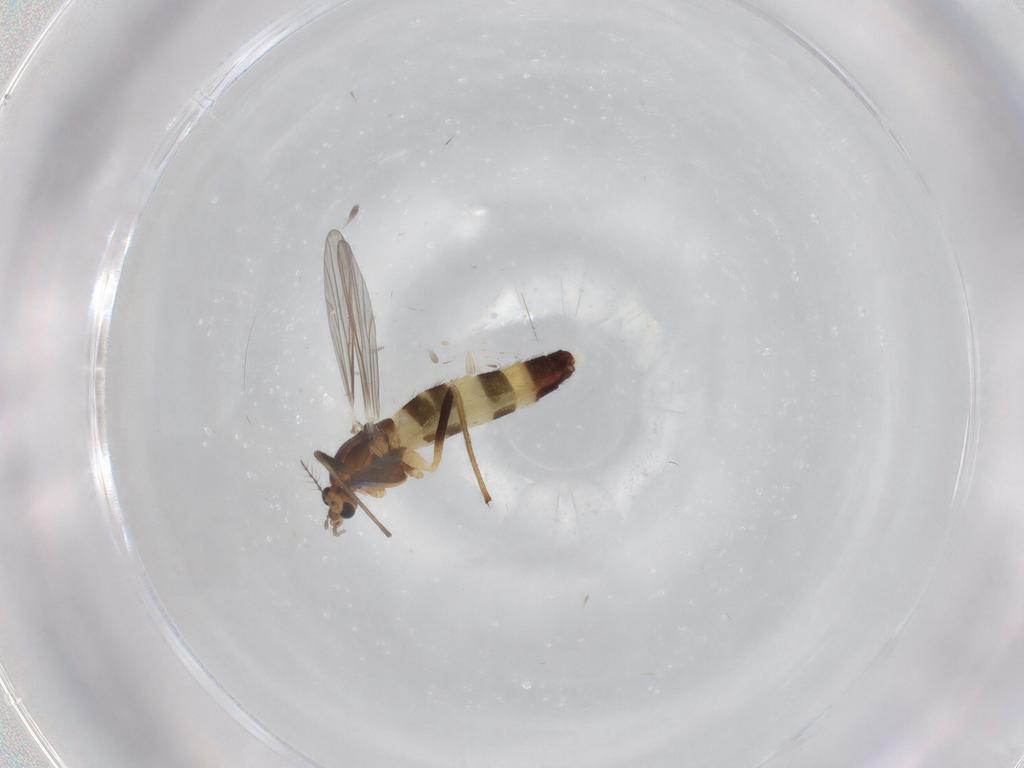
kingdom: Animalia
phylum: Arthropoda
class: Insecta
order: Diptera
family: Chironomidae
